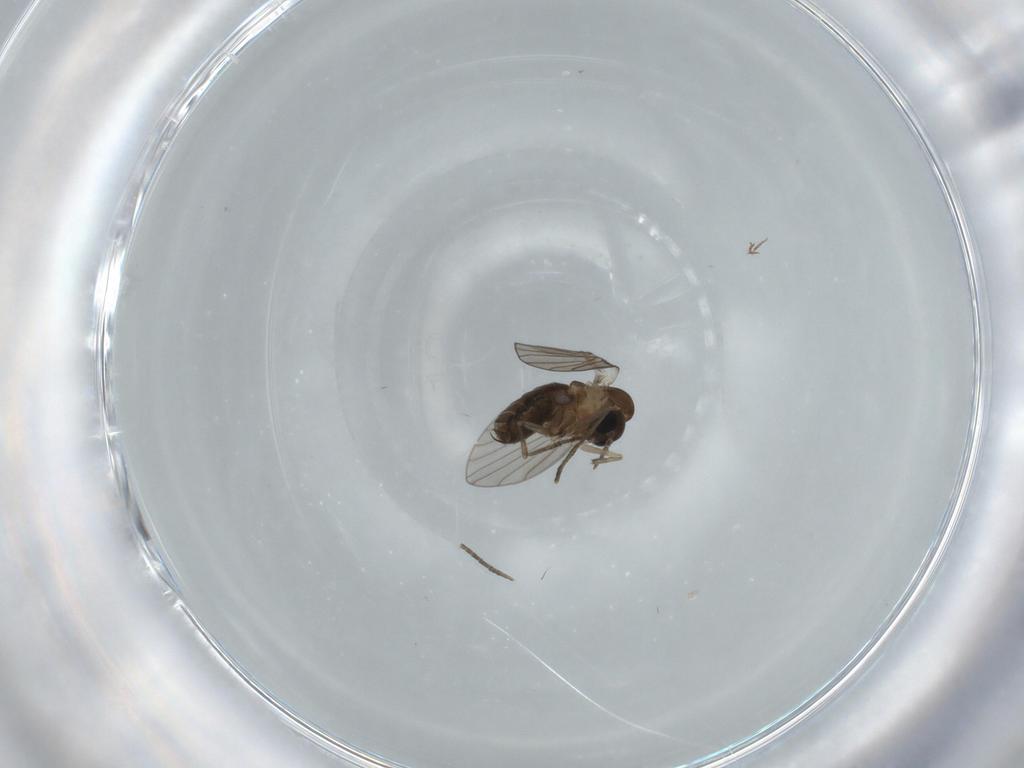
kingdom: Animalia
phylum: Arthropoda
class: Insecta
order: Diptera
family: Psychodidae
